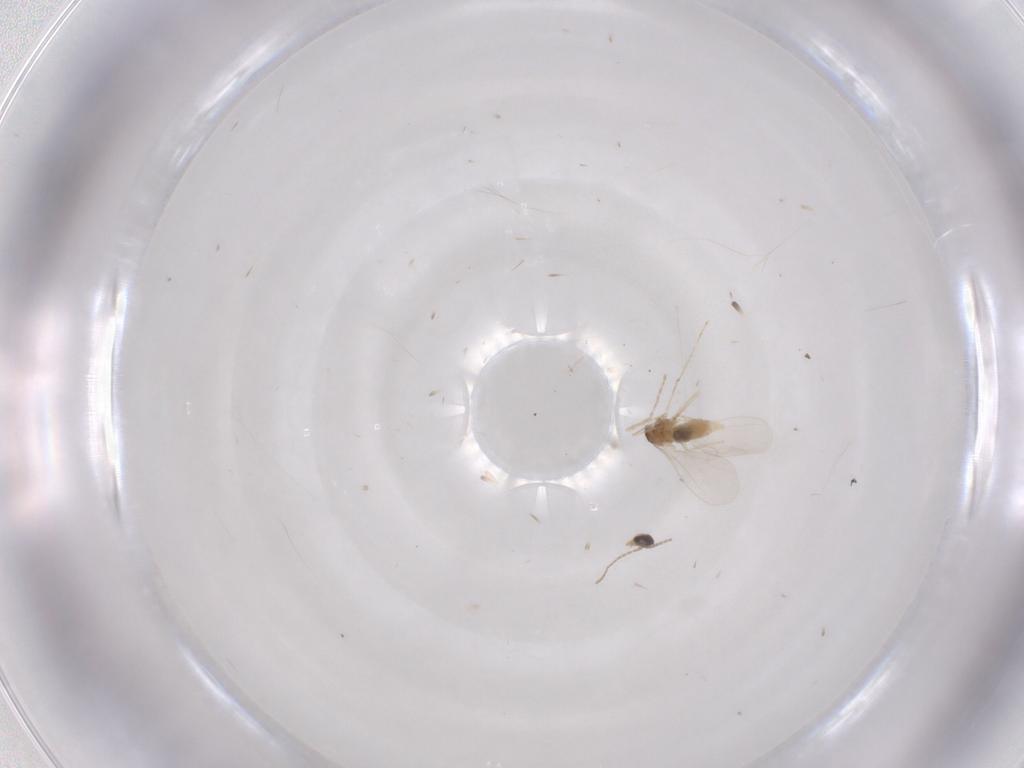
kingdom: Animalia
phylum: Arthropoda
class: Insecta
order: Diptera
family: Cecidomyiidae
